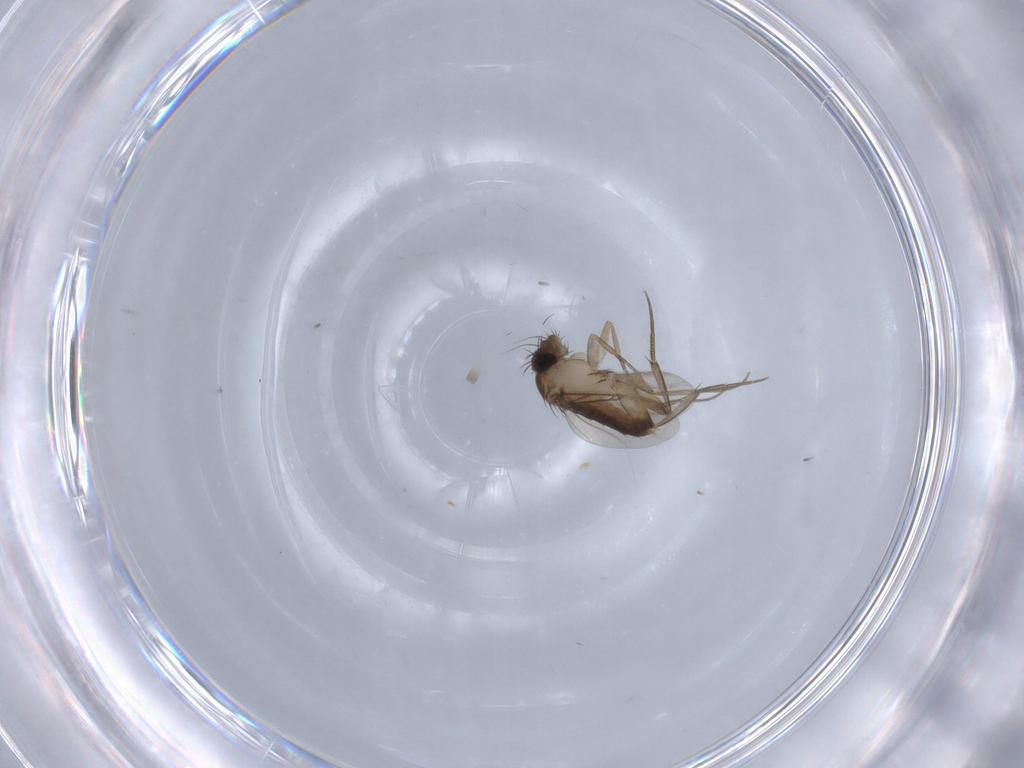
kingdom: Animalia
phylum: Arthropoda
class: Insecta
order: Diptera
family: Phoridae
